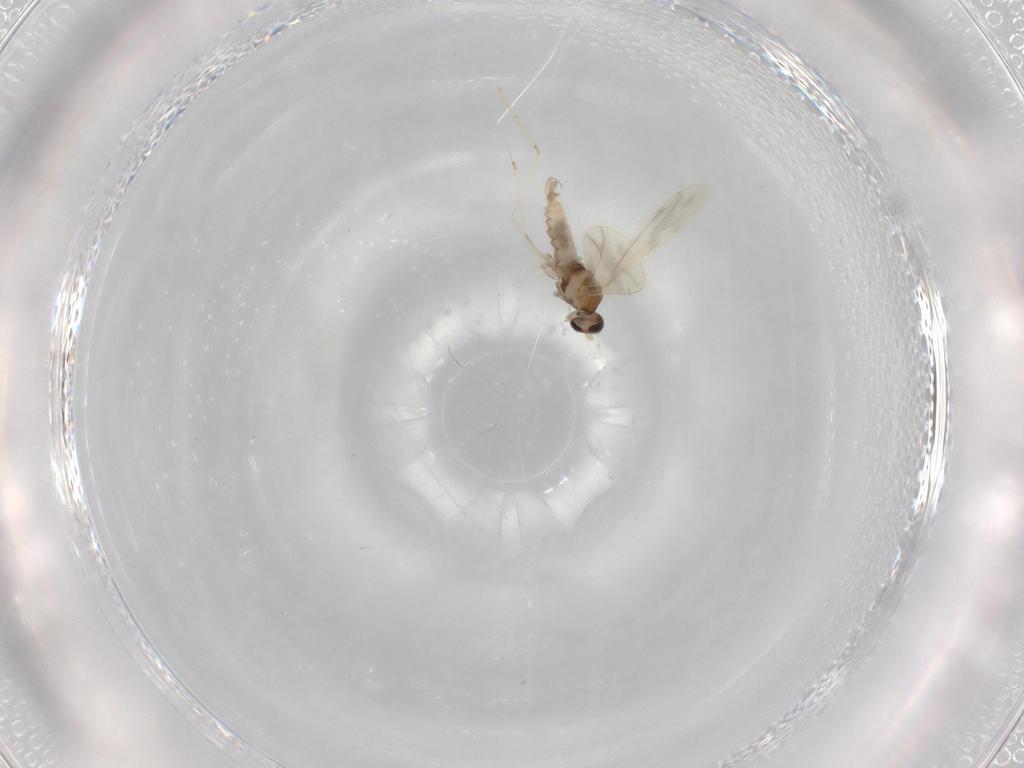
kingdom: Animalia
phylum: Arthropoda
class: Insecta
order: Diptera
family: Cecidomyiidae
